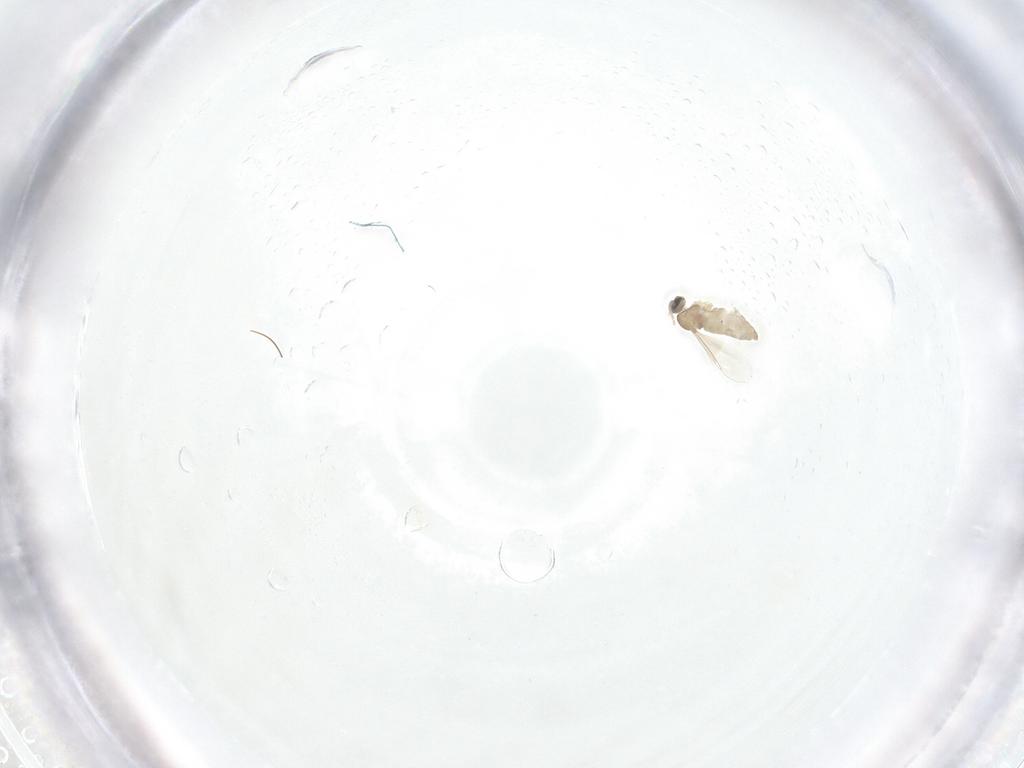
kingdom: Animalia
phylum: Arthropoda
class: Insecta
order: Diptera
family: Cecidomyiidae
